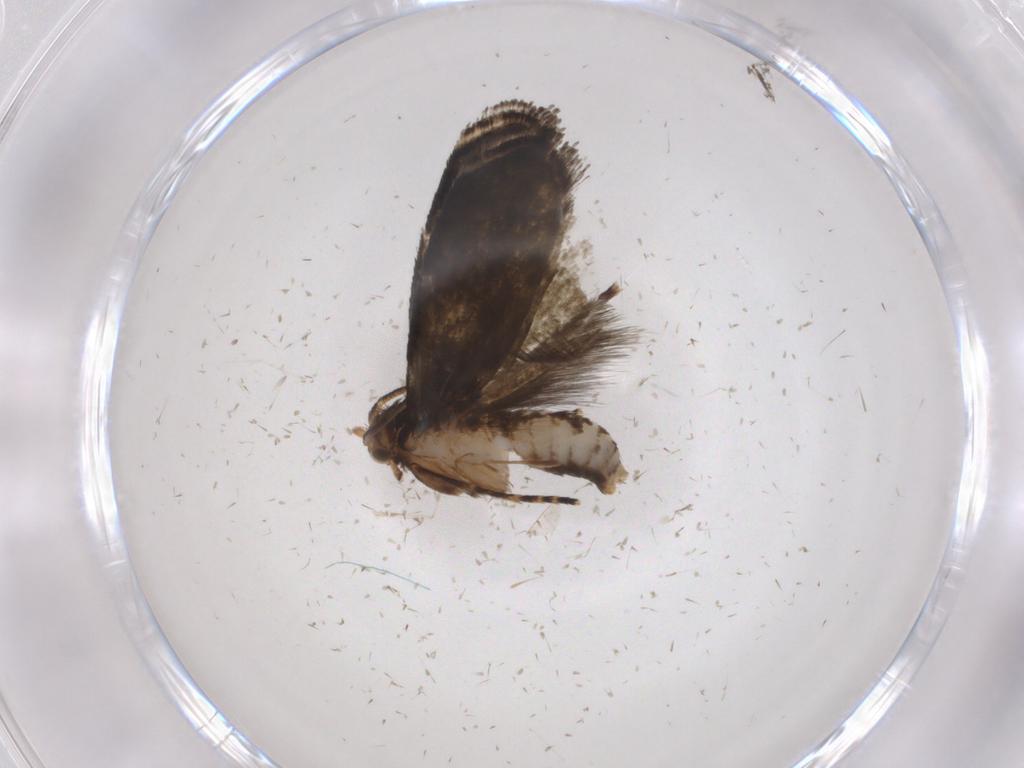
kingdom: Animalia
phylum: Arthropoda
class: Insecta
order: Lepidoptera
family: Tineidae
